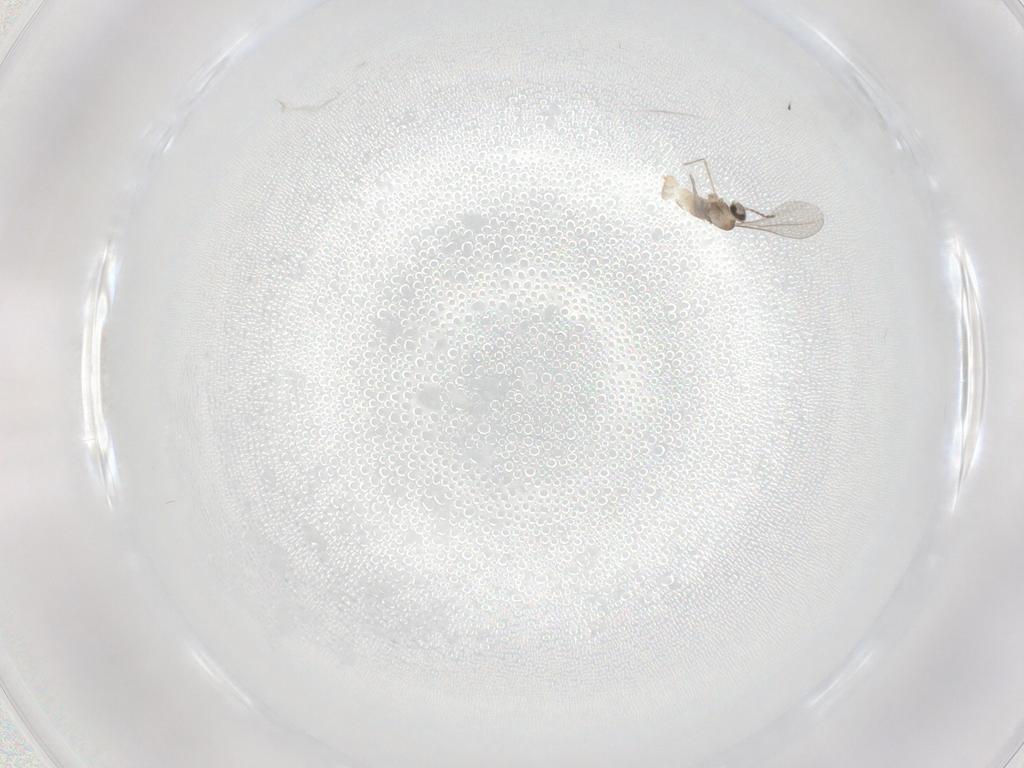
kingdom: Animalia
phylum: Arthropoda
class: Insecta
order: Diptera
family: Cecidomyiidae
